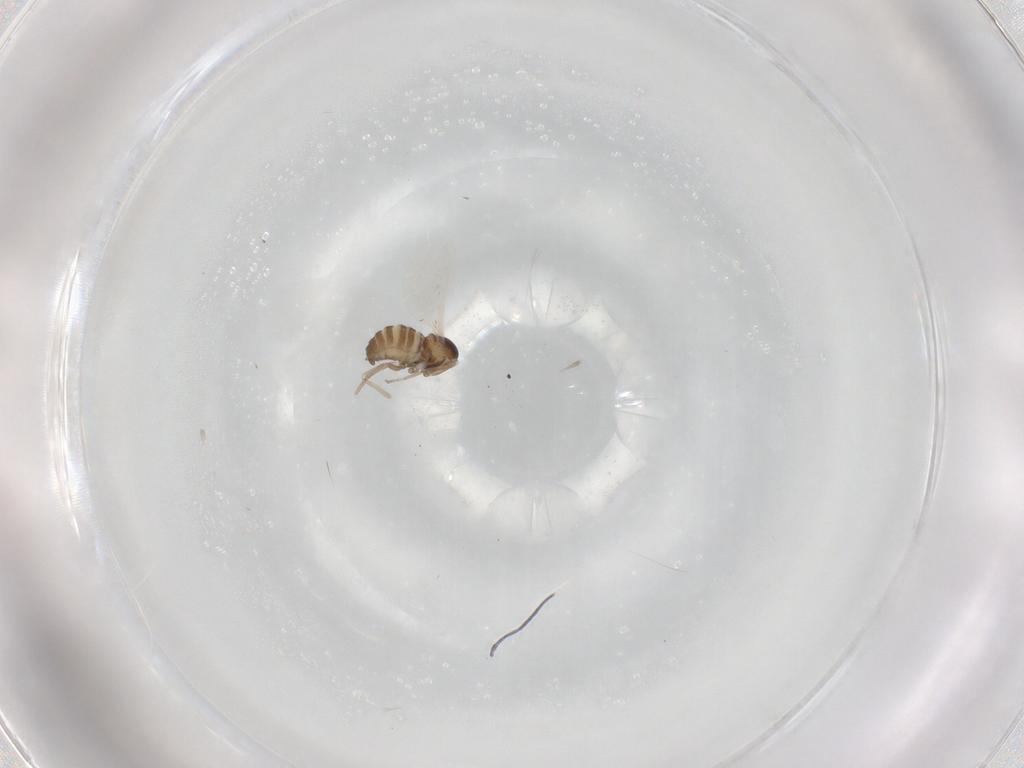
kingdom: Animalia
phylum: Arthropoda
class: Insecta
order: Diptera
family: Cecidomyiidae
